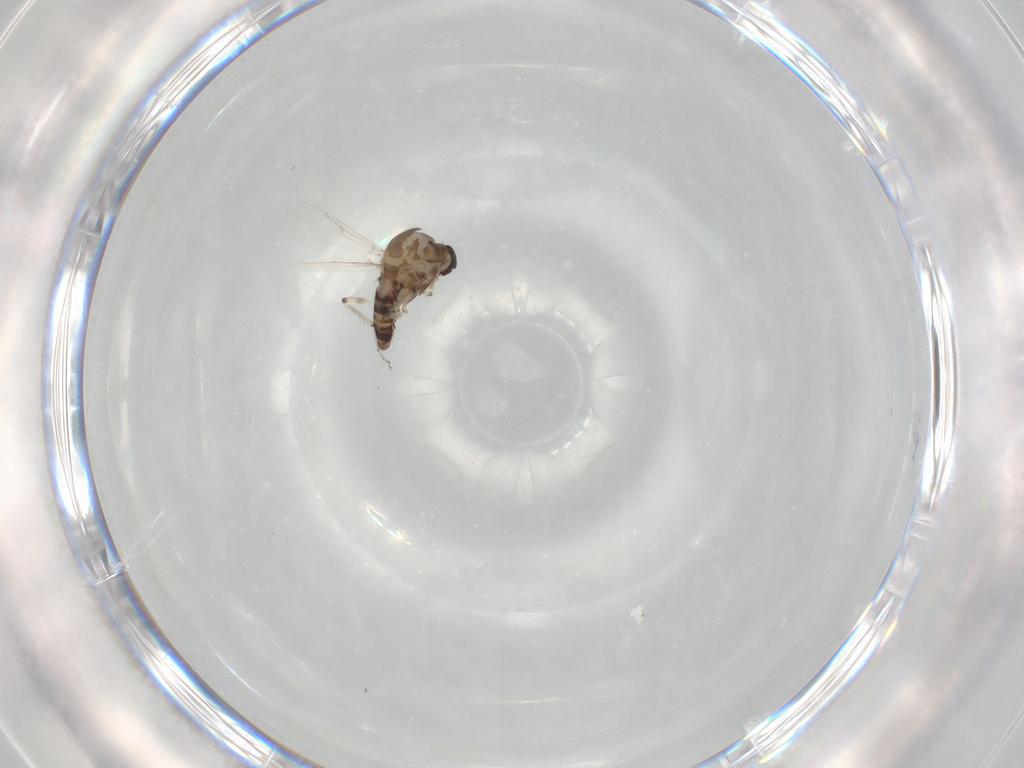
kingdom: Animalia
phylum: Arthropoda
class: Insecta
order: Diptera
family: Ceratopogonidae
